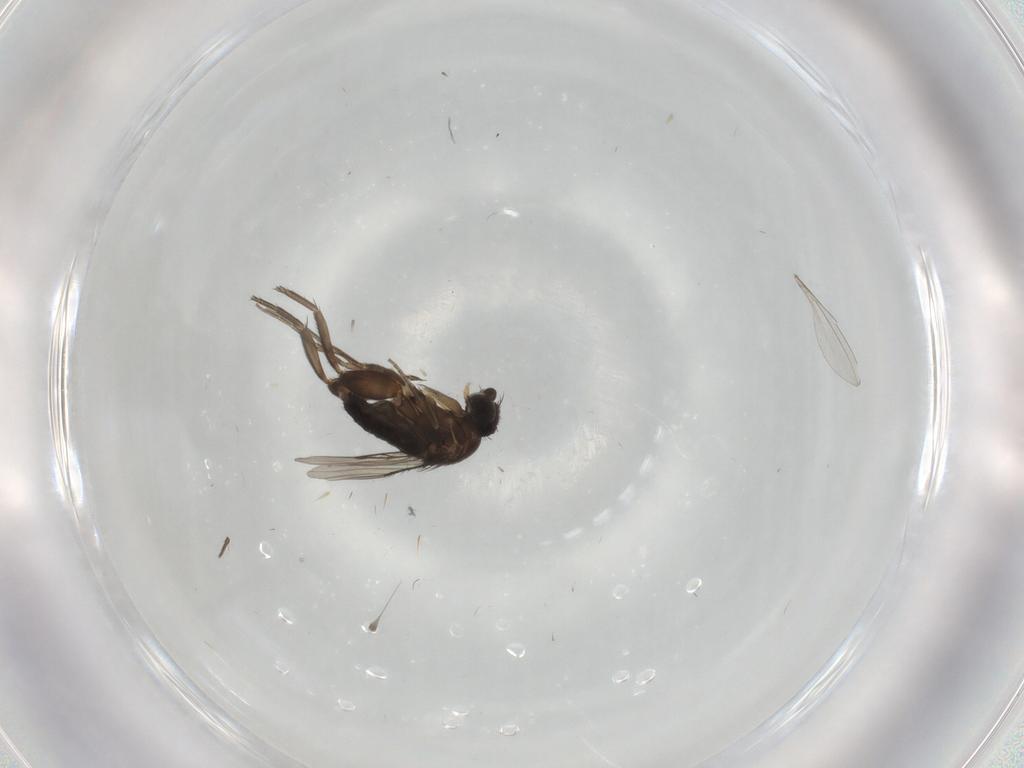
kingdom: Animalia
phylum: Arthropoda
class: Insecta
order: Diptera
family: Phoridae
